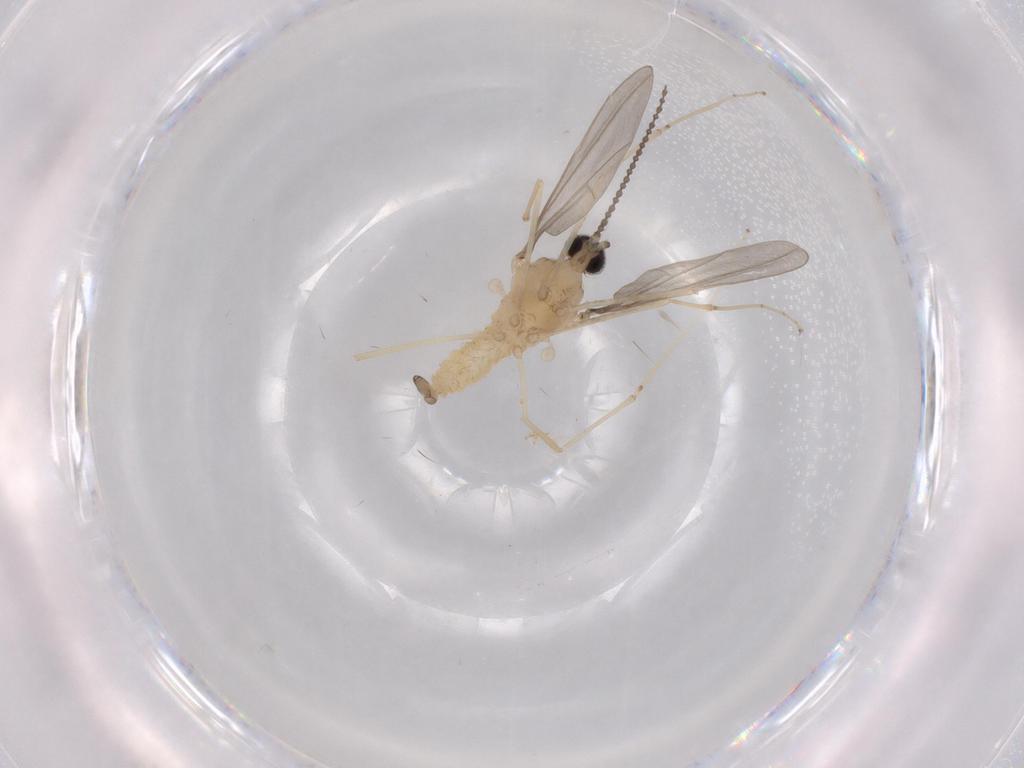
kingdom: Animalia
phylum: Arthropoda
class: Insecta
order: Diptera
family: Cecidomyiidae
